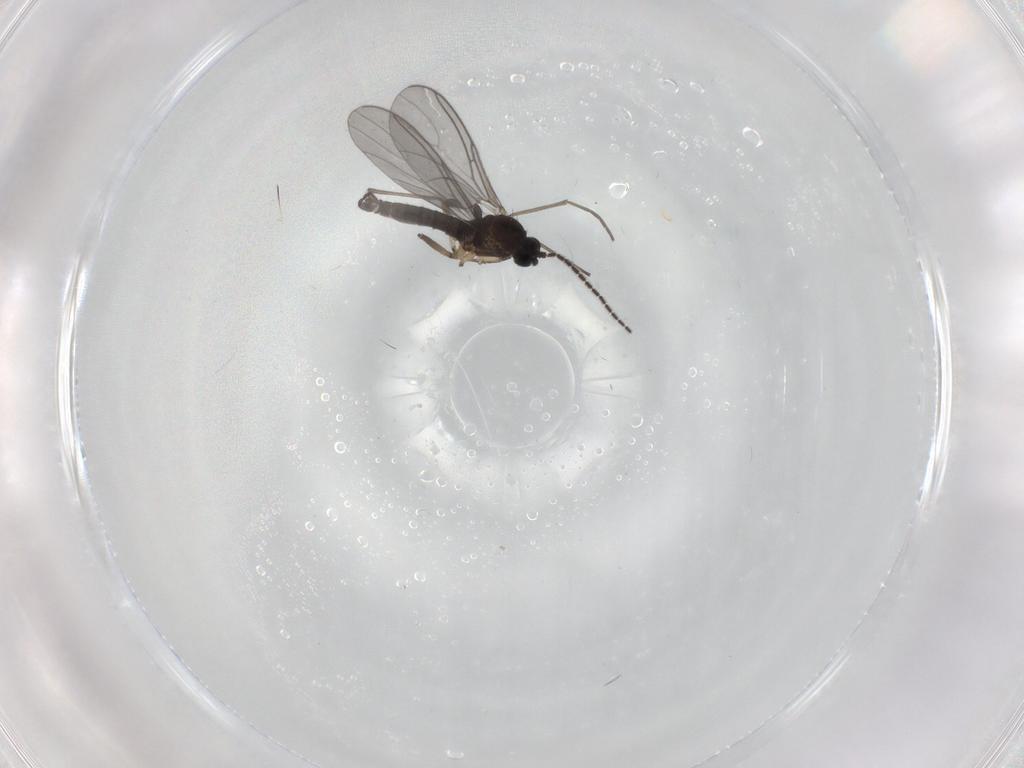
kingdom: Animalia
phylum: Arthropoda
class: Insecta
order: Diptera
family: Sciaridae
